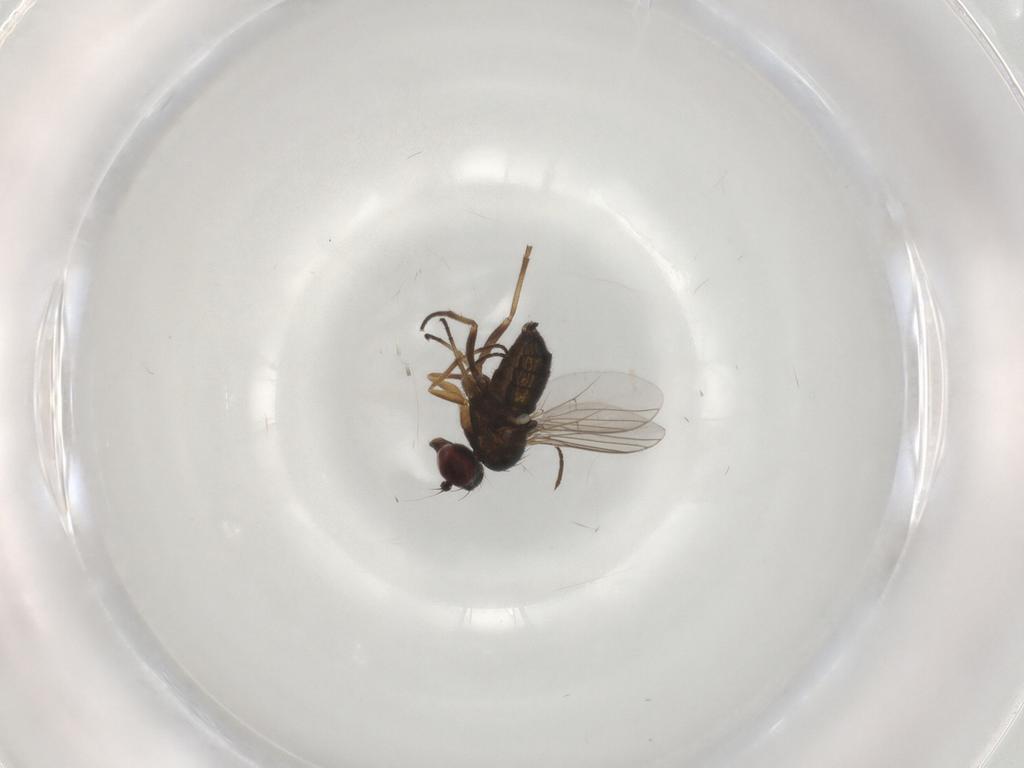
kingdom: Animalia
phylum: Arthropoda
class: Insecta
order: Diptera
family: Dolichopodidae
